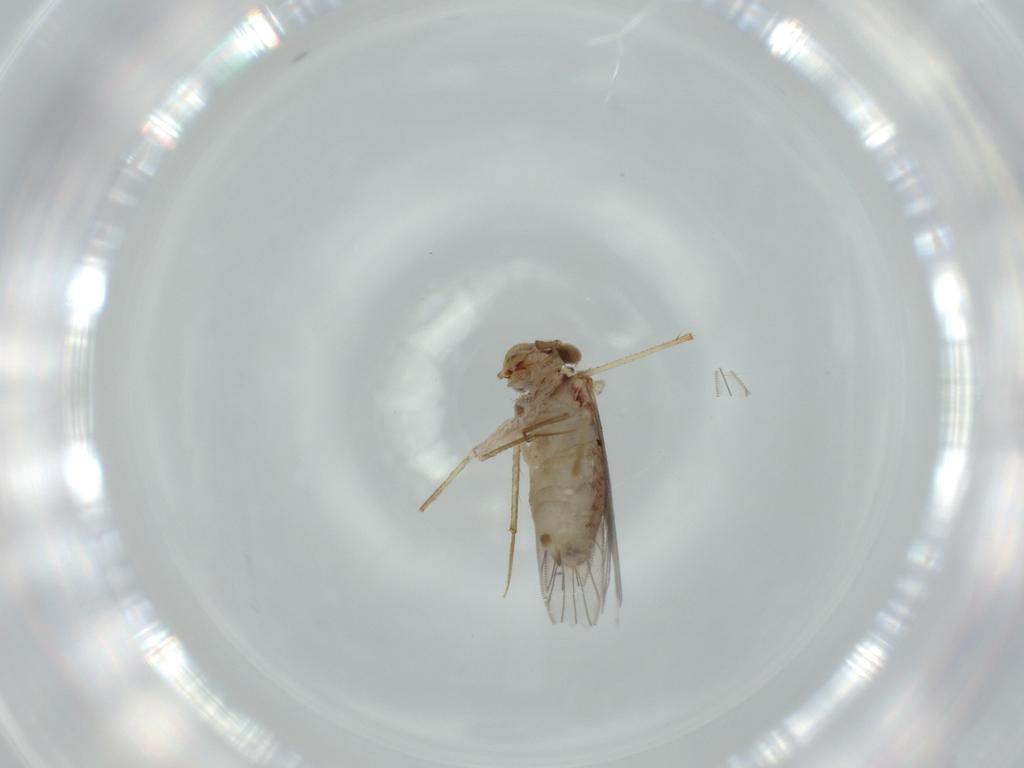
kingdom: Animalia
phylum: Arthropoda
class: Insecta
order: Psocodea
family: Lepidopsocidae
